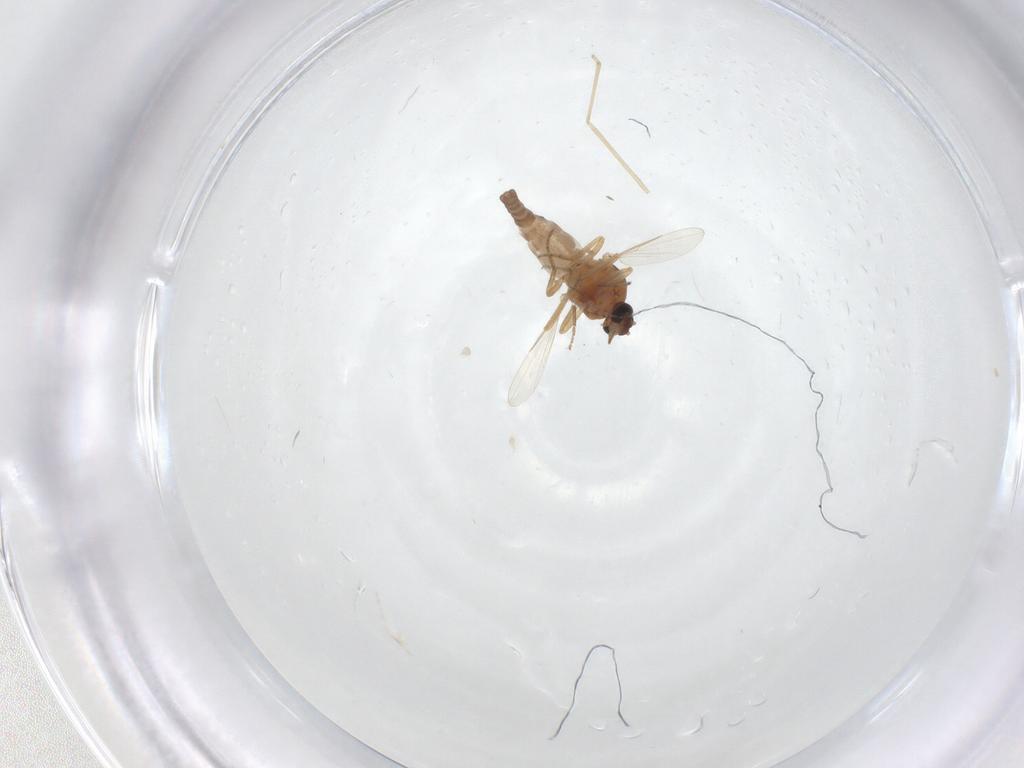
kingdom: Animalia
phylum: Arthropoda
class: Insecta
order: Diptera
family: Ceratopogonidae
